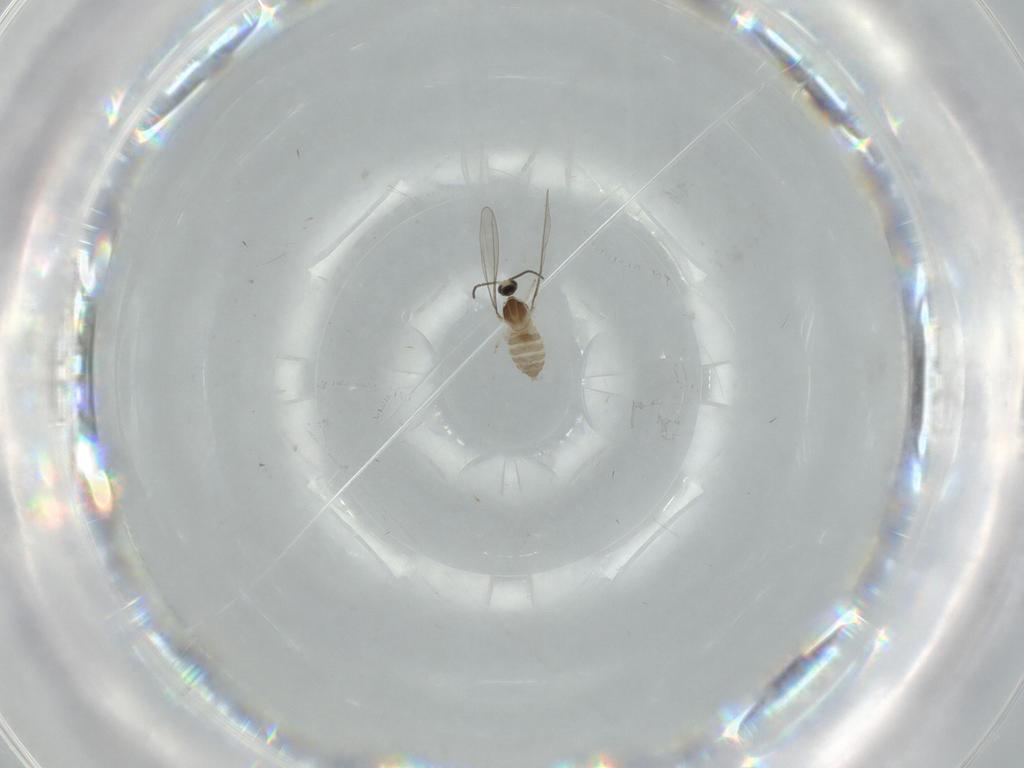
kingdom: Animalia
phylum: Arthropoda
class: Insecta
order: Diptera
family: Cecidomyiidae
